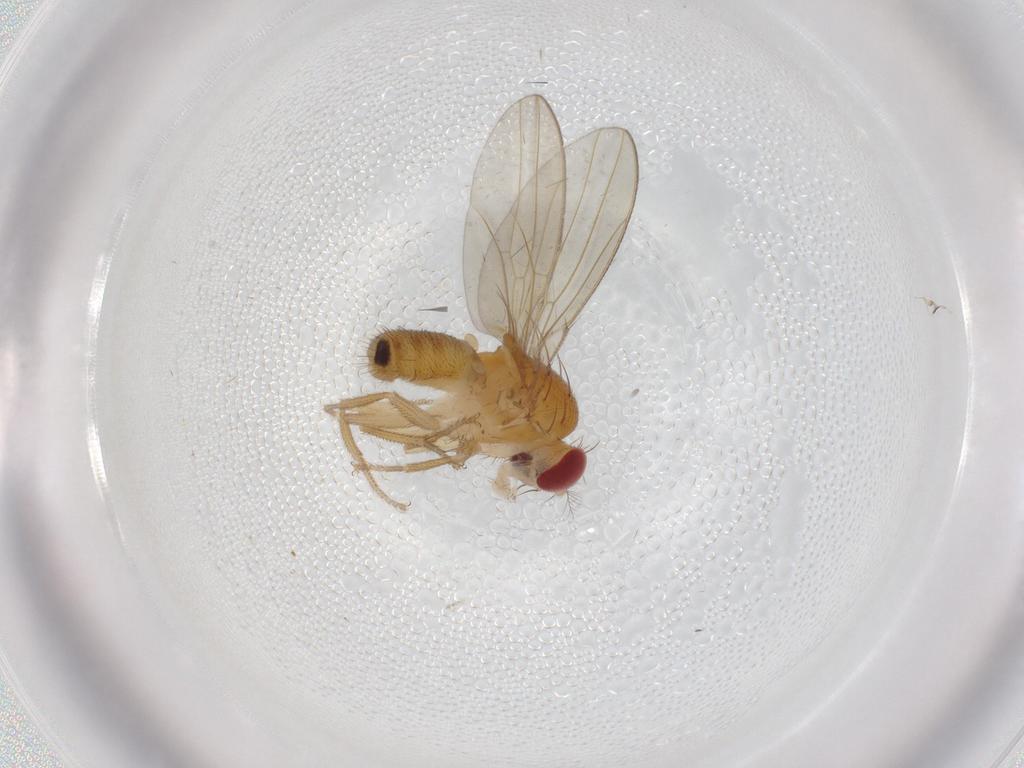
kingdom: Animalia
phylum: Arthropoda
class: Insecta
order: Diptera
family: Drosophilidae
